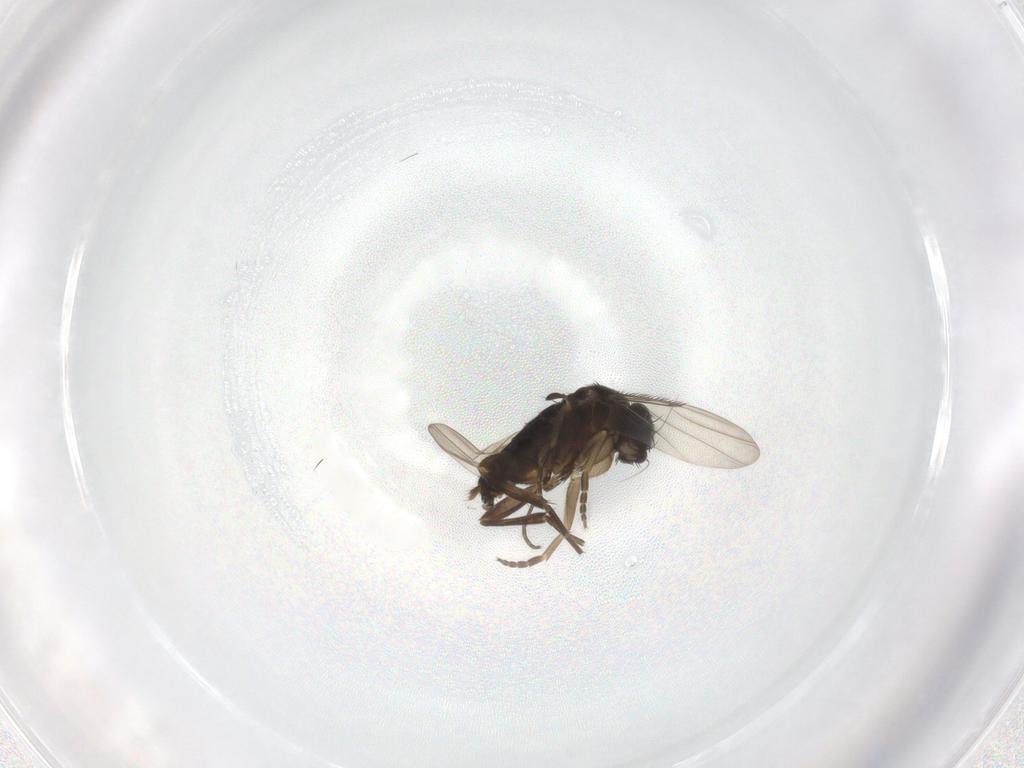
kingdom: Animalia
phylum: Arthropoda
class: Insecta
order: Diptera
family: Phoridae
